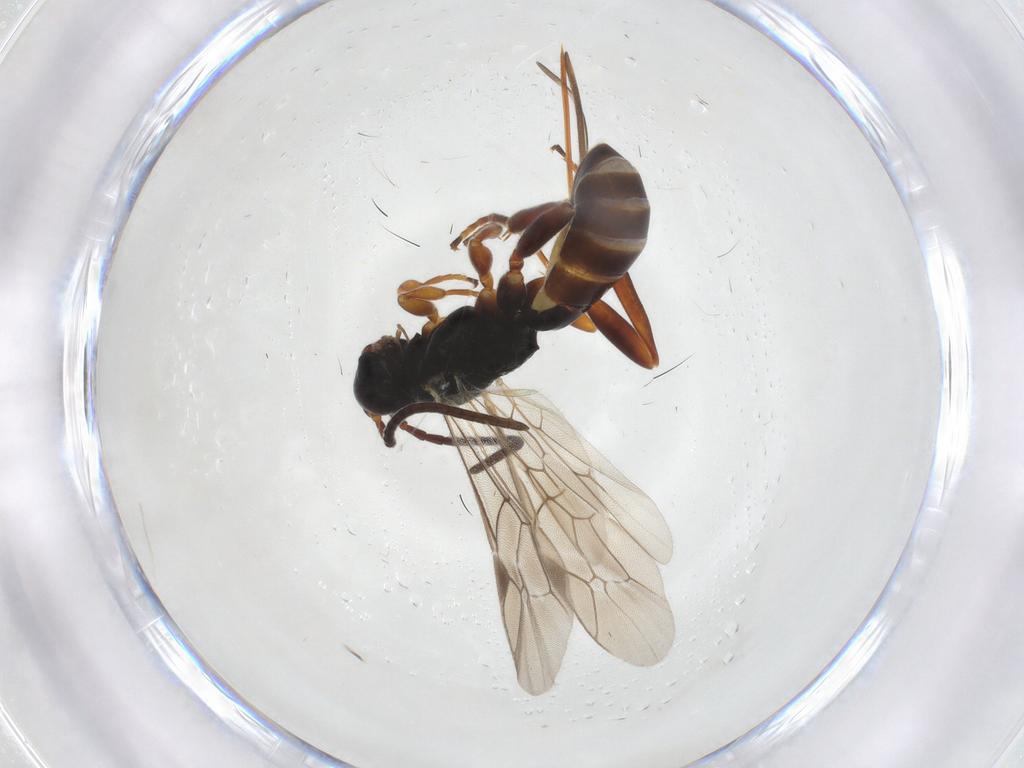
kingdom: Animalia
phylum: Arthropoda
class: Insecta
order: Hymenoptera
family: Ichneumonidae
